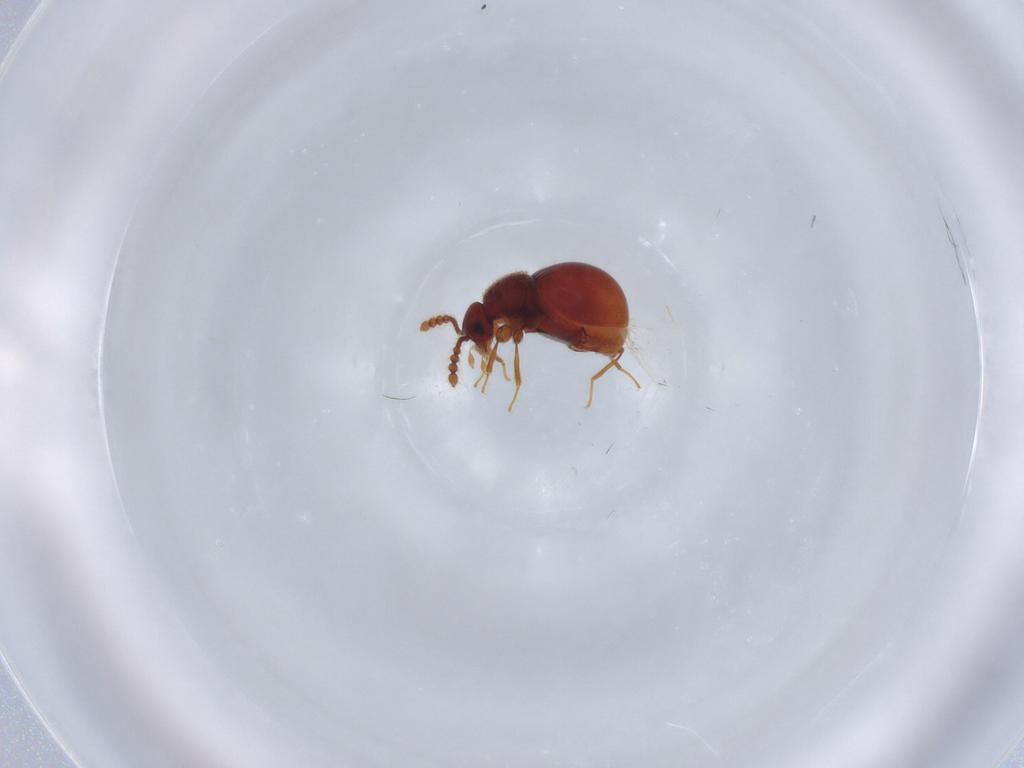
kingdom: Animalia
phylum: Arthropoda
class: Insecta
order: Coleoptera
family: Staphylinidae
